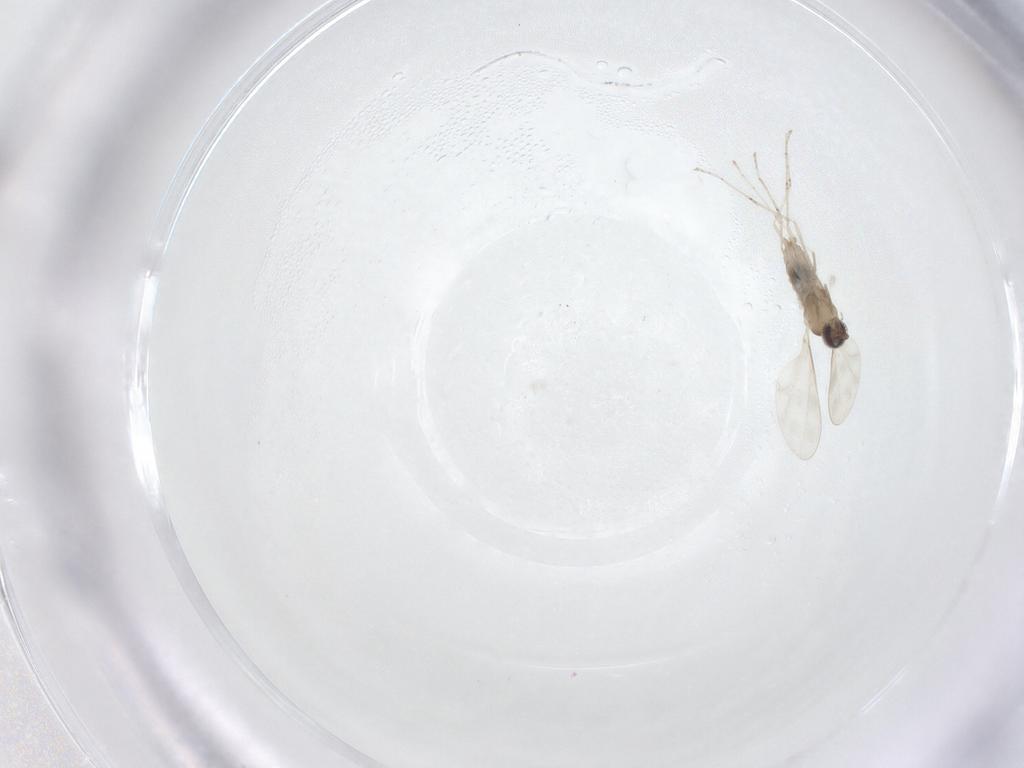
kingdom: Animalia
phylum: Arthropoda
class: Insecta
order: Diptera
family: Cecidomyiidae
